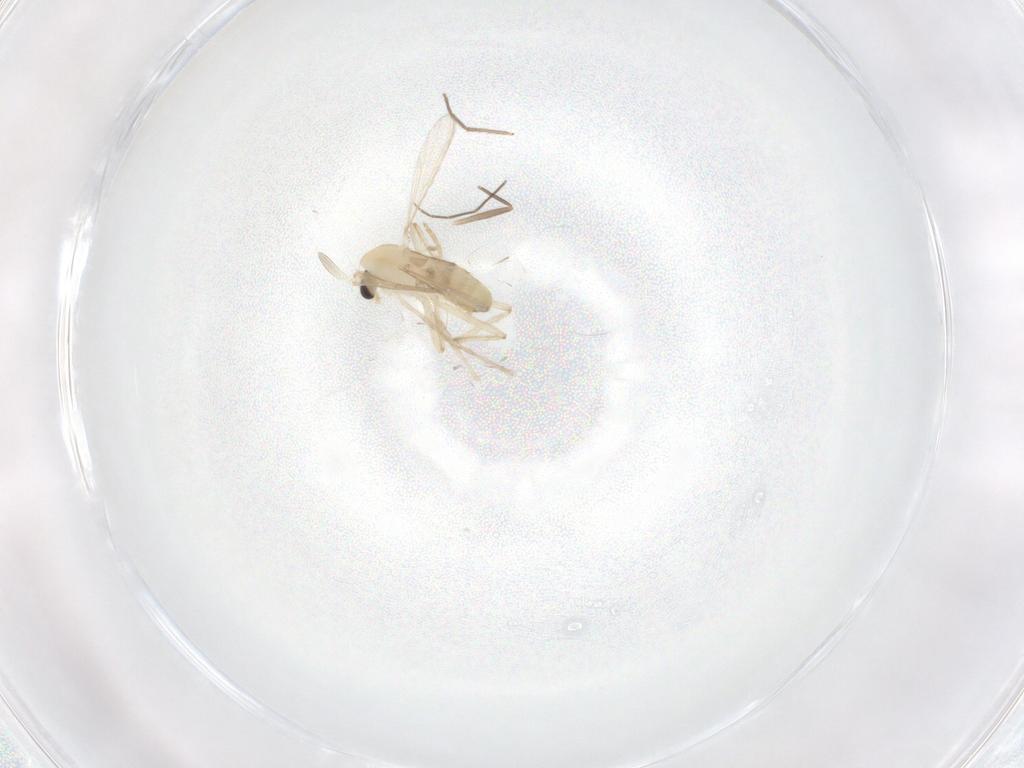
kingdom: Animalia
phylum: Arthropoda
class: Insecta
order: Diptera
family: Chironomidae
